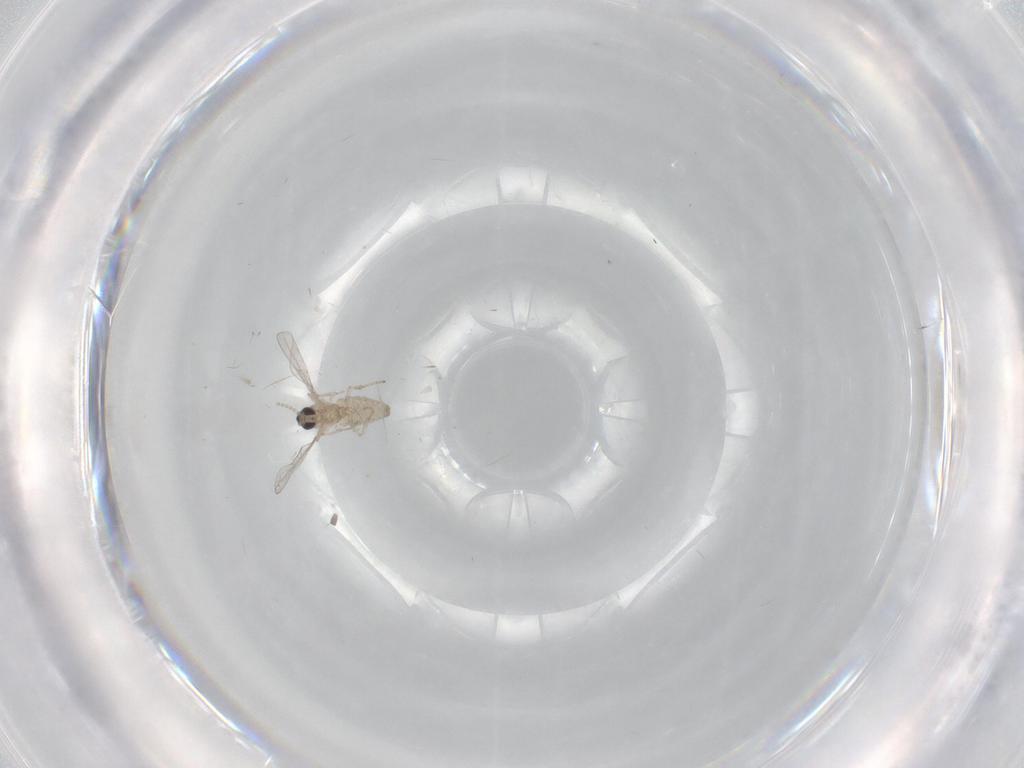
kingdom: Animalia
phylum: Arthropoda
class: Insecta
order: Diptera
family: Cecidomyiidae
